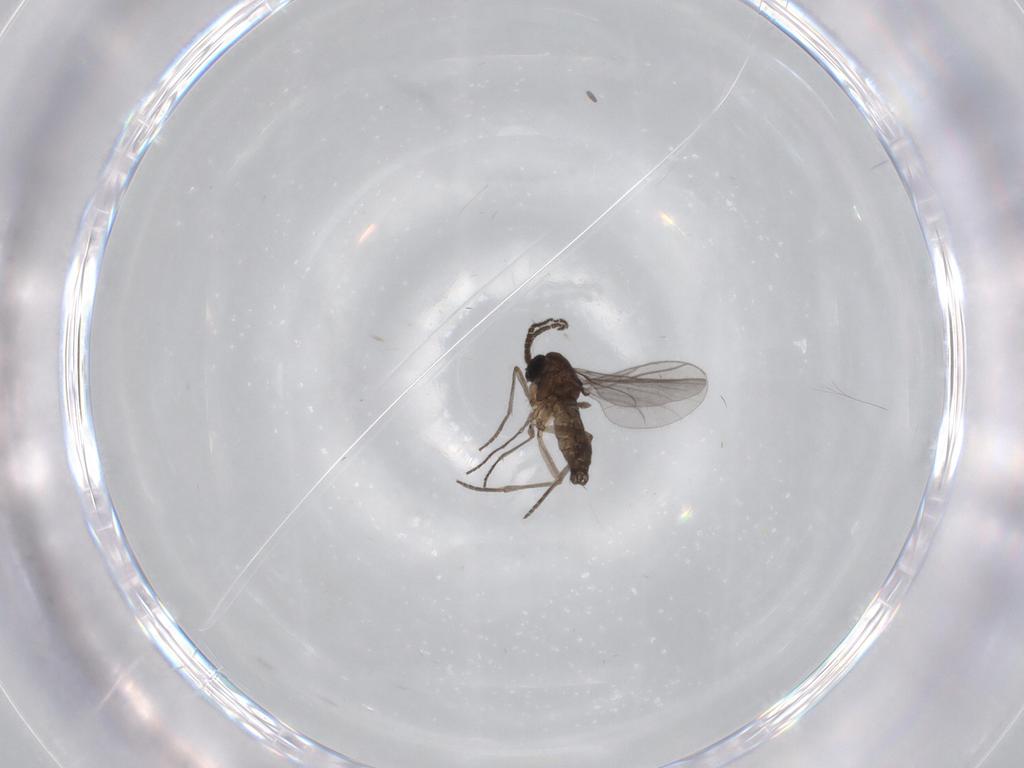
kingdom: Animalia
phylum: Arthropoda
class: Insecta
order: Diptera
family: Sciaridae
